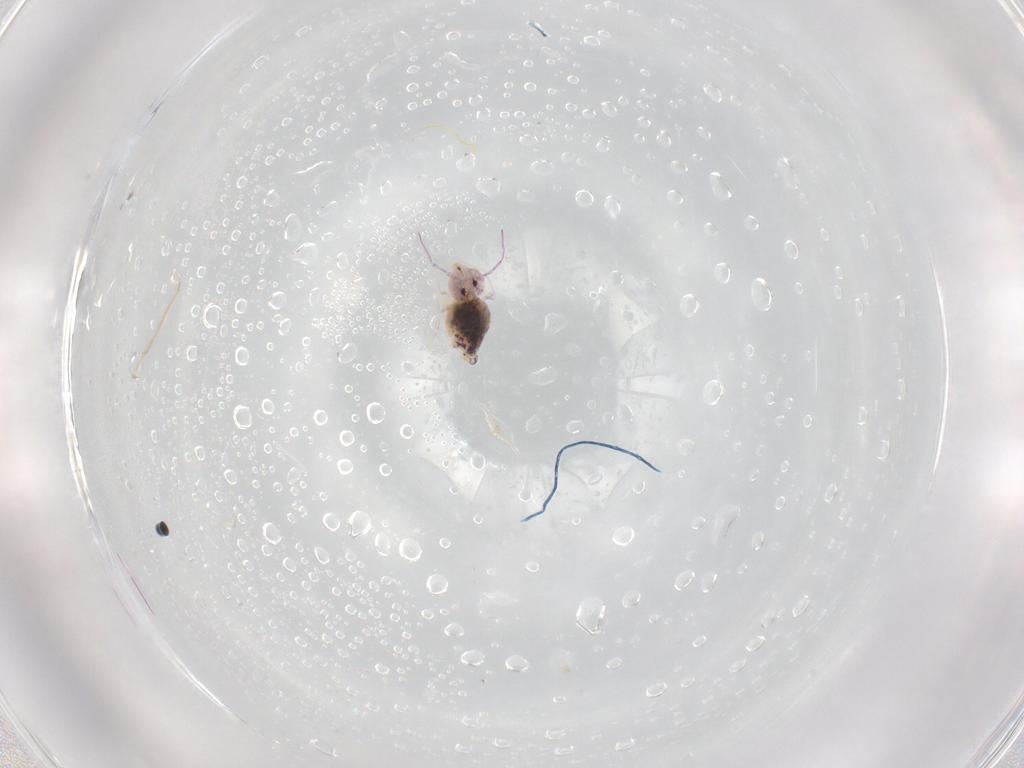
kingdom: Animalia
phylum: Arthropoda
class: Collembola
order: Symphypleona
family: Bourletiellidae
